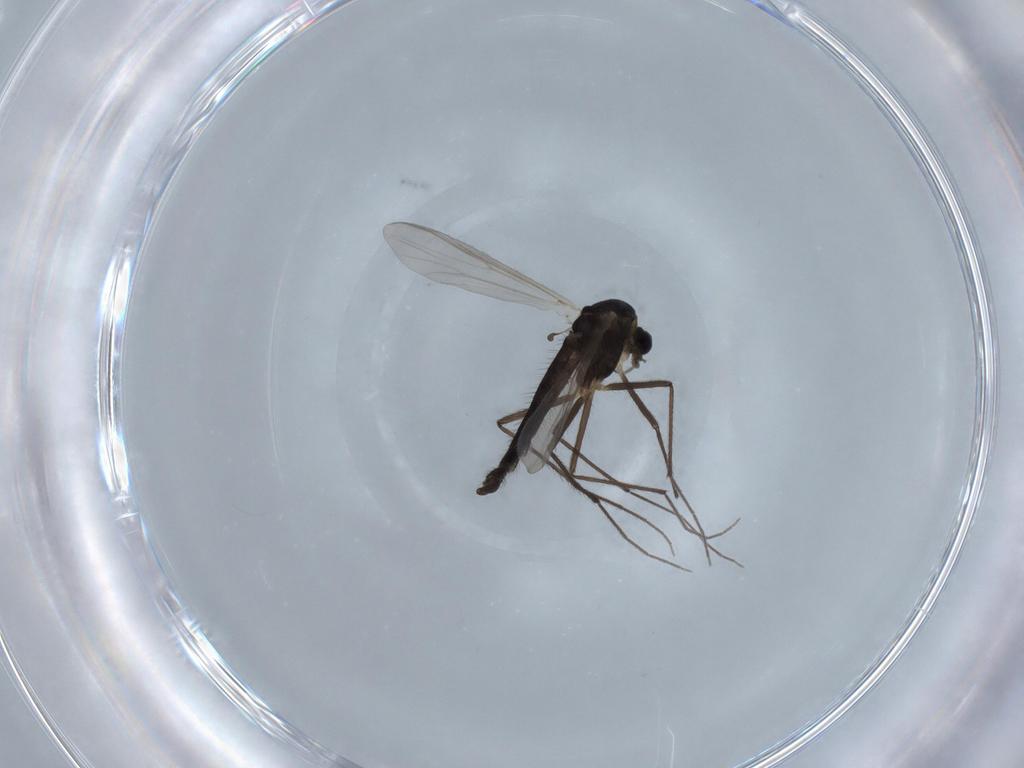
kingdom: Animalia
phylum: Arthropoda
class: Insecta
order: Diptera
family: Chironomidae
